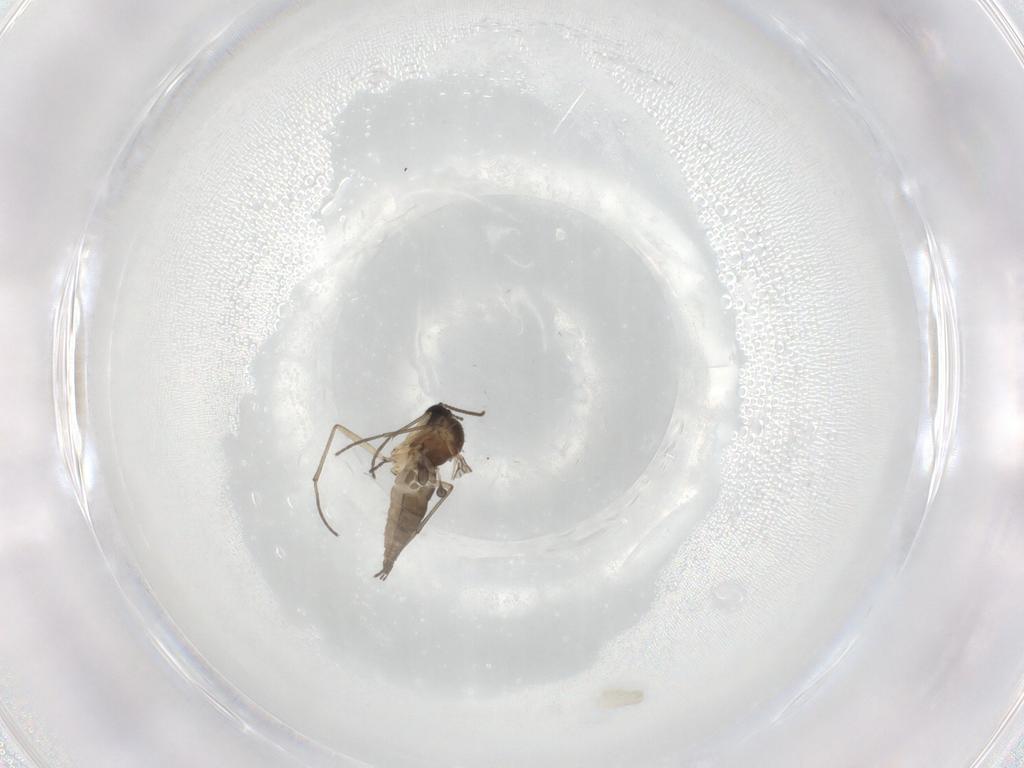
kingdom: Animalia
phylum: Arthropoda
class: Insecta
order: Diptera
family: Sciaridae
